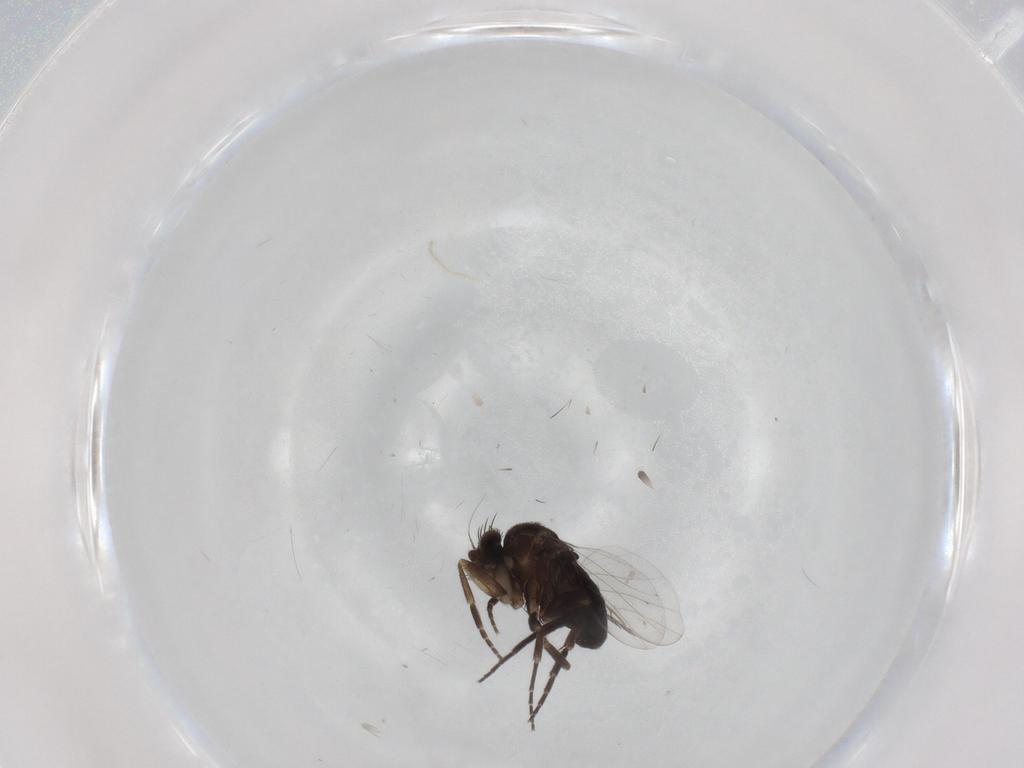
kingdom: Animalia
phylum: Arthropoda
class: Insecta
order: Diptera
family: Phoridae
